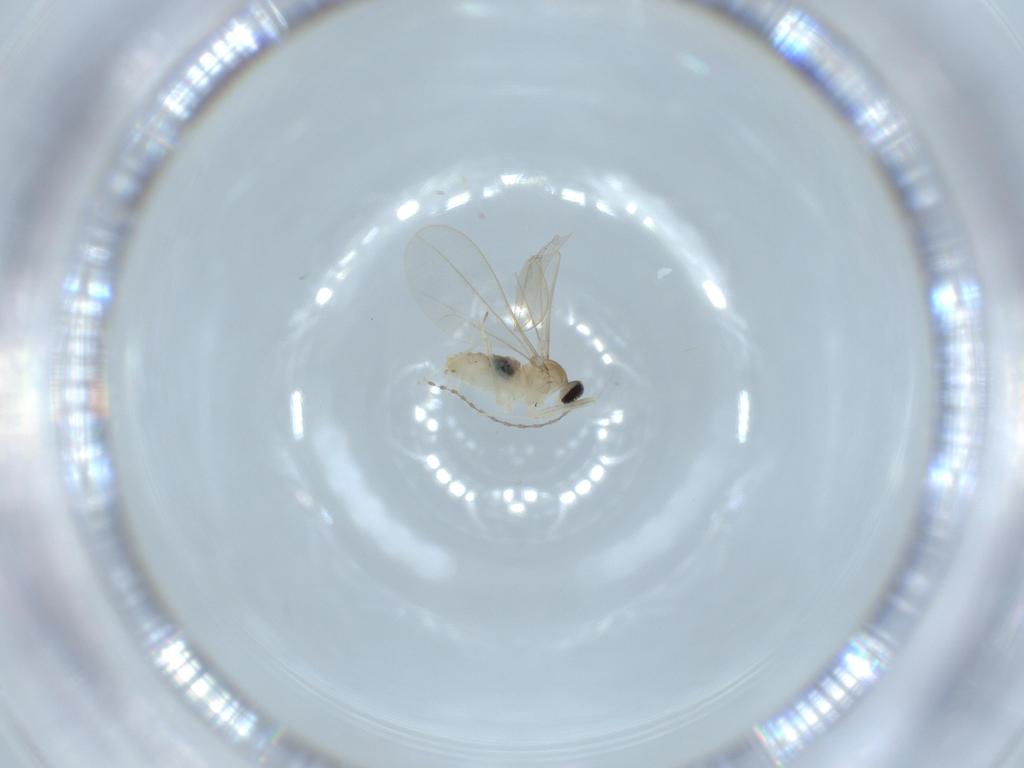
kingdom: Animalia
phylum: Arthropoda
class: Insecta
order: Diptera
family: Cecidomyiidae
